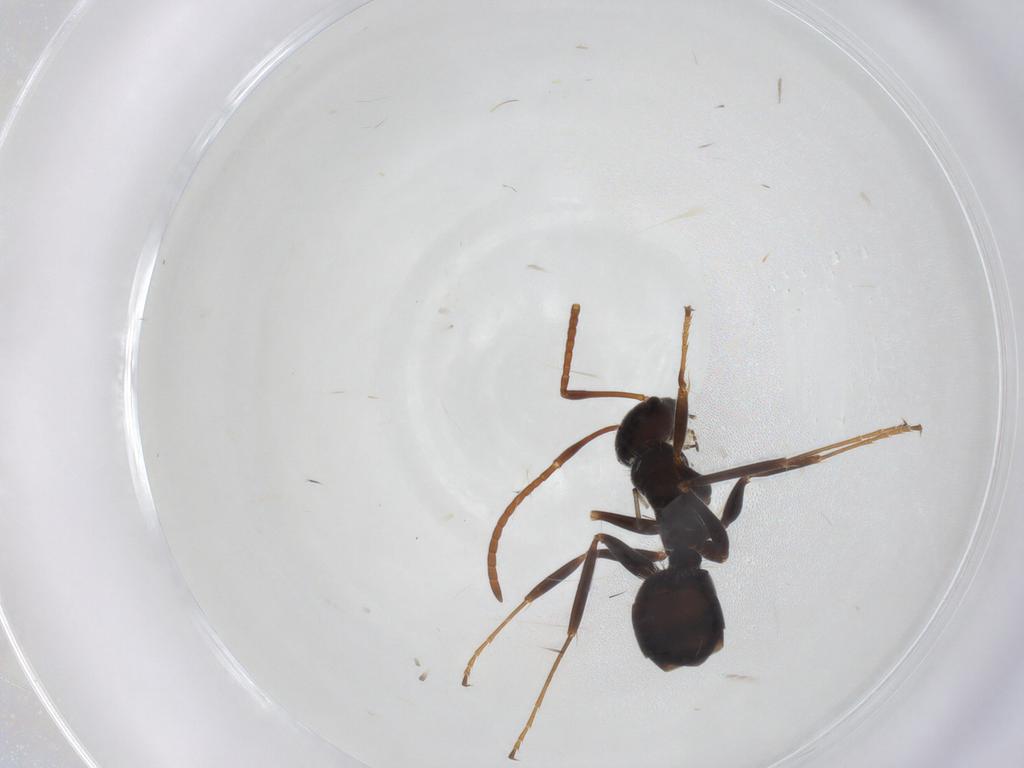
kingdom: Animalia
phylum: Arthropoda
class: Insecta
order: Hymenoptera
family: Formicidae
